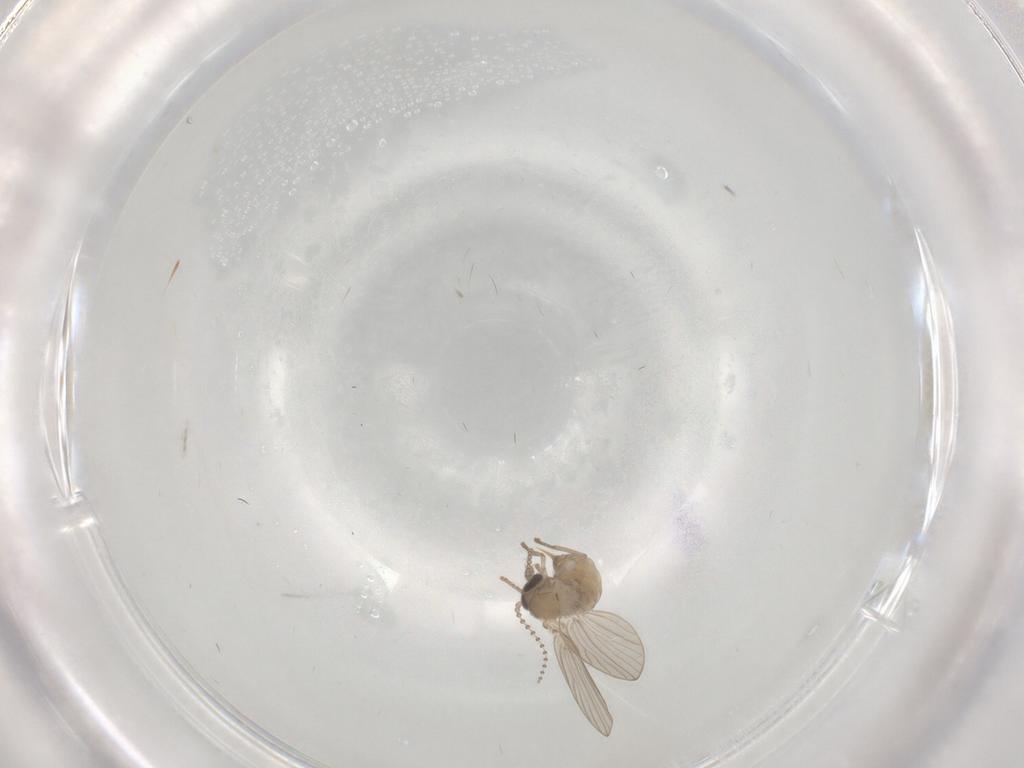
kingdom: Animalia
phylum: Arthropoda
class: Insecta
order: Diptera
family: Psychodidae
